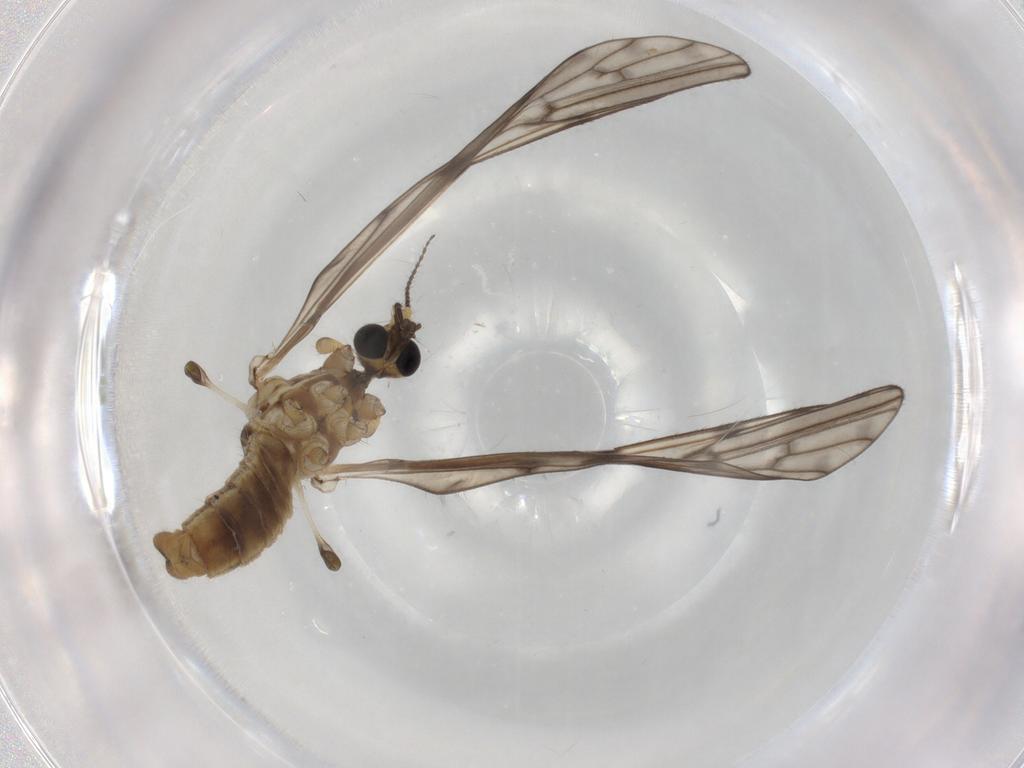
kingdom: Animalia
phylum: Arthropoda
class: Insecta
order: Diptera
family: Limoniidae
